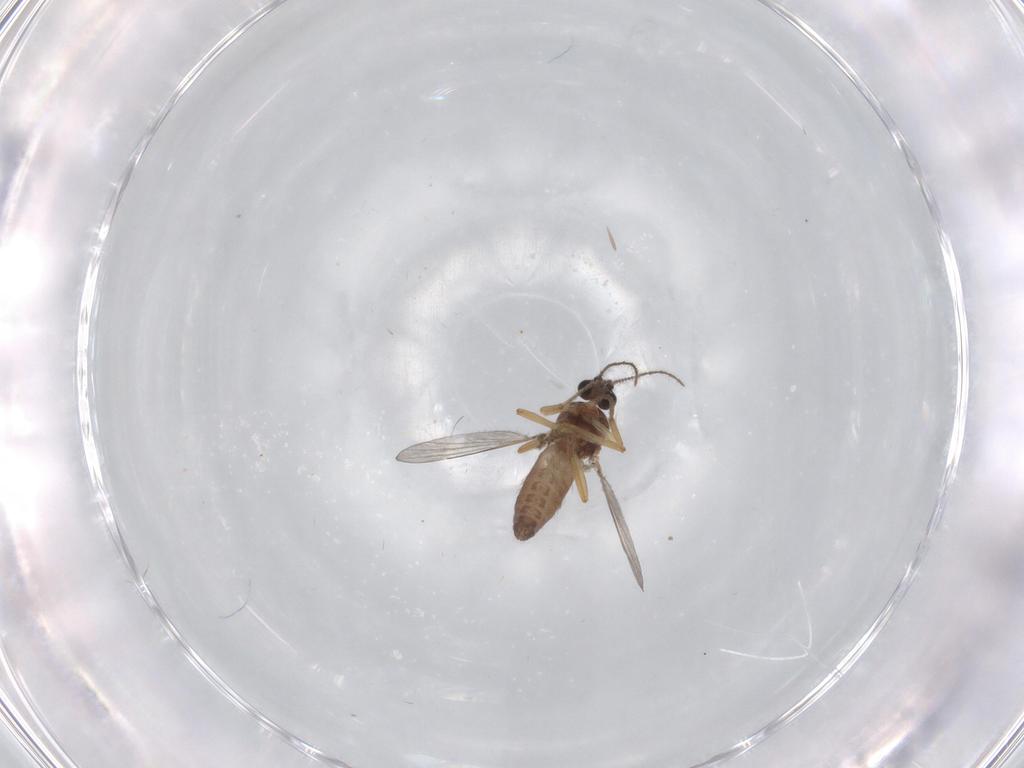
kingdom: Animalia
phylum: Arthropoda
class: Insecta
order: Diptera
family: Ceratopogonidae
